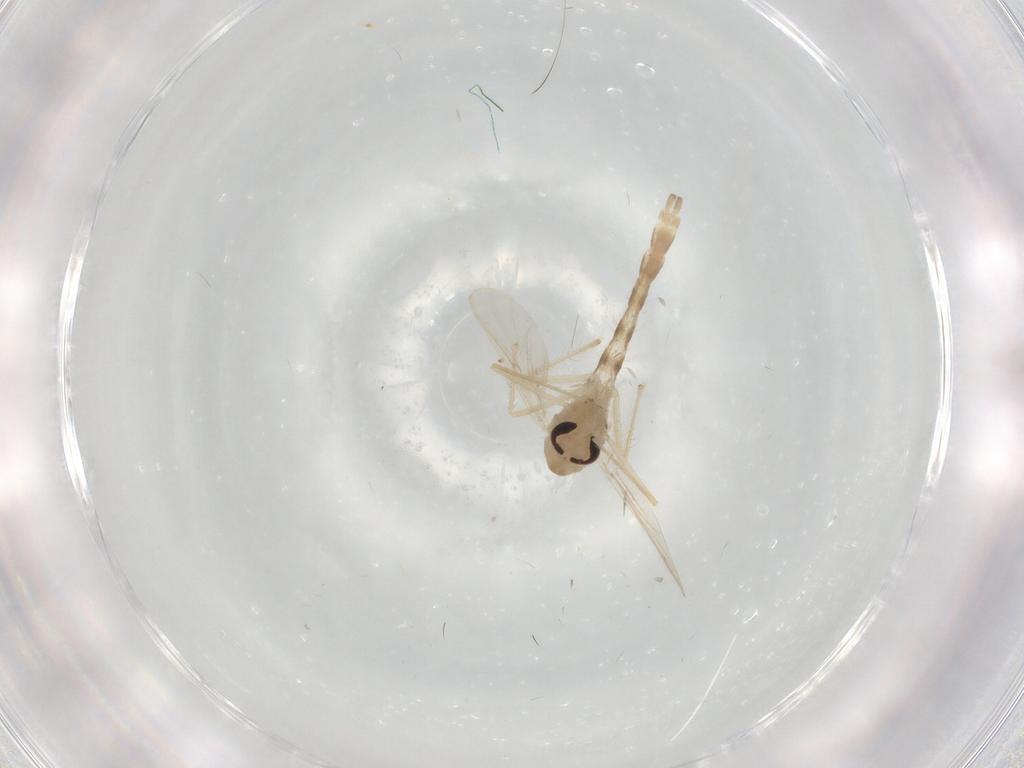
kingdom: Animalia
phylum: Arthropoda
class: Insecta
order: Diptera
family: Chironomidae
